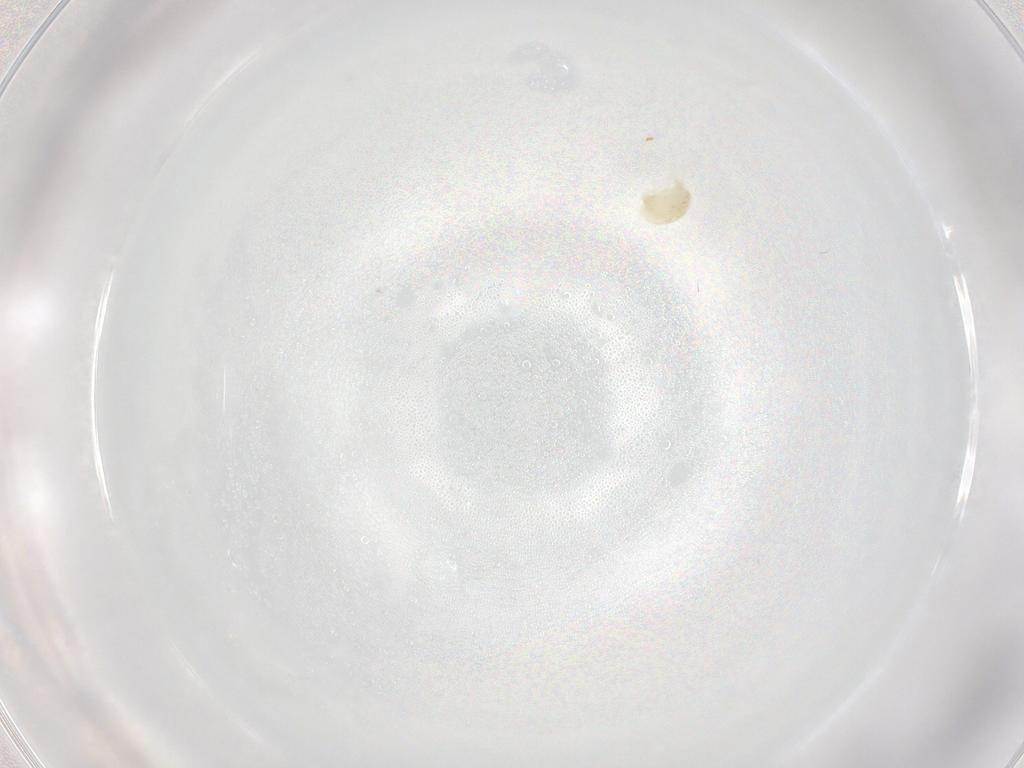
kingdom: Animalia
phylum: Arthropoda
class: Arachnida
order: Trombidiformes
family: Eupodidae
